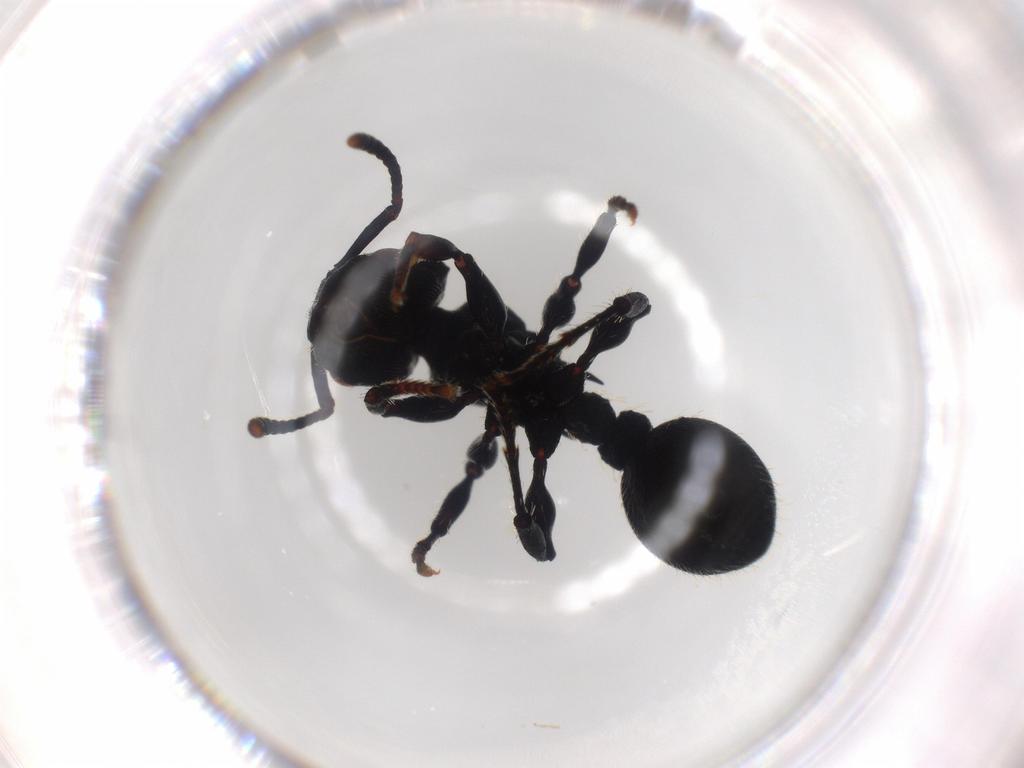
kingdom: Animalia
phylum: Arthropoda
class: Insecta
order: Hymenoptera
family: Formicidae
